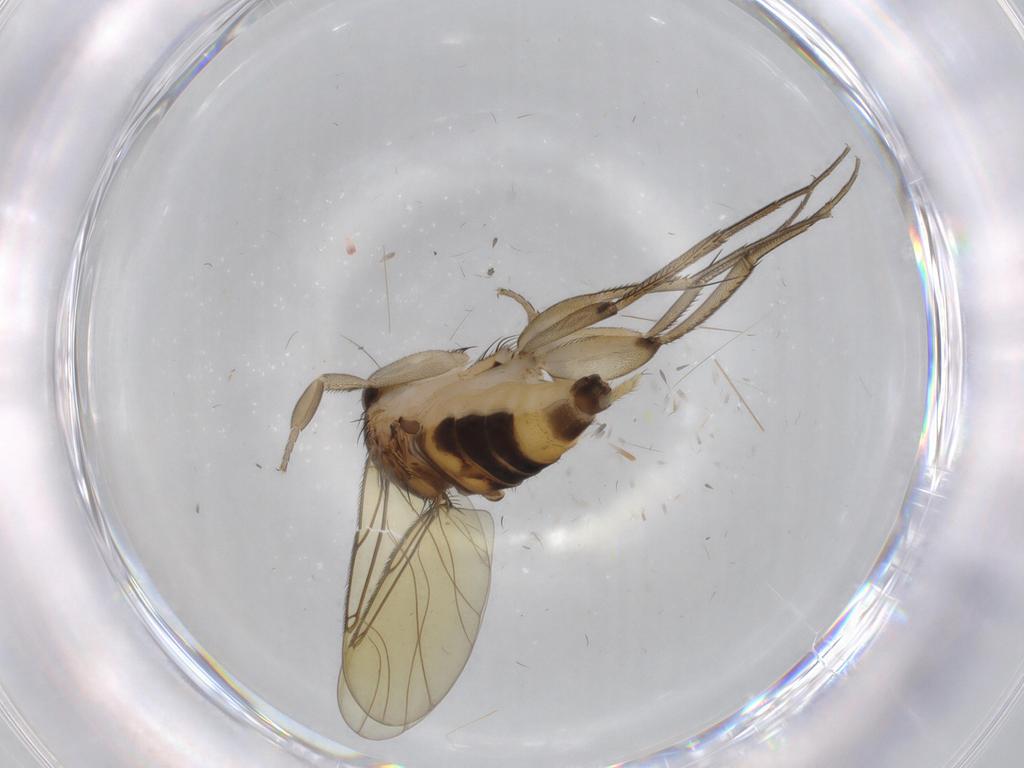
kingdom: Animalia
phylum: Arthropoda
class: Insecta
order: Diptera
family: Phoridae
